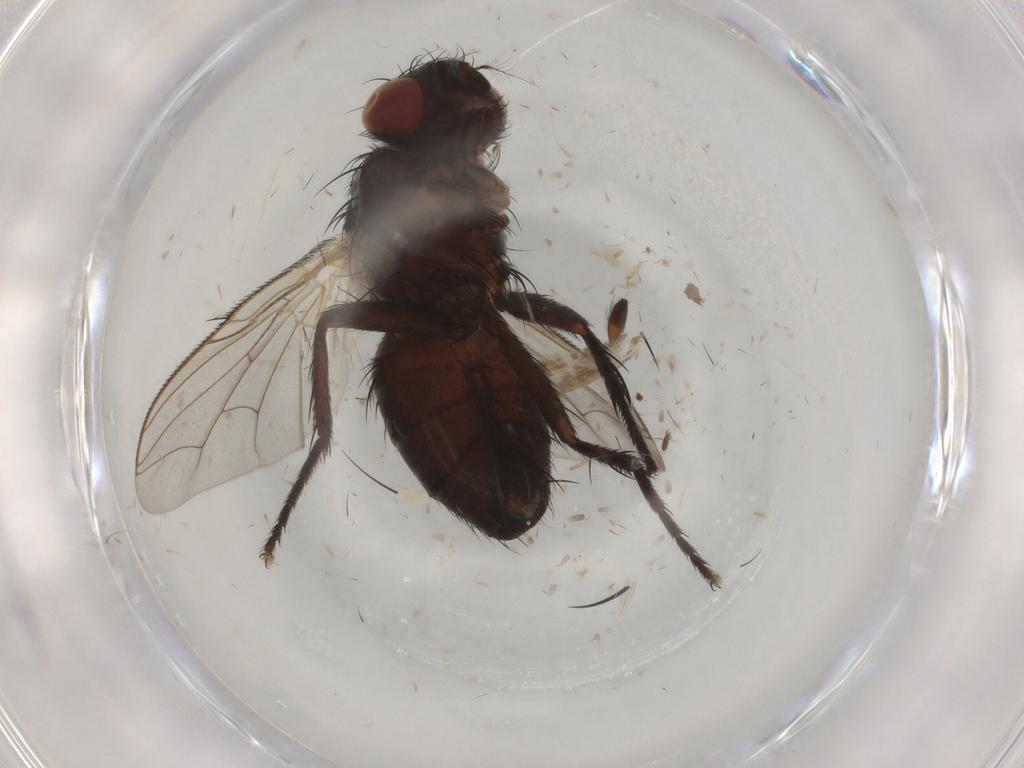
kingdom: Animalia
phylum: Arthropoda
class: Insecta
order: Diptera
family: Sarcophagidae
